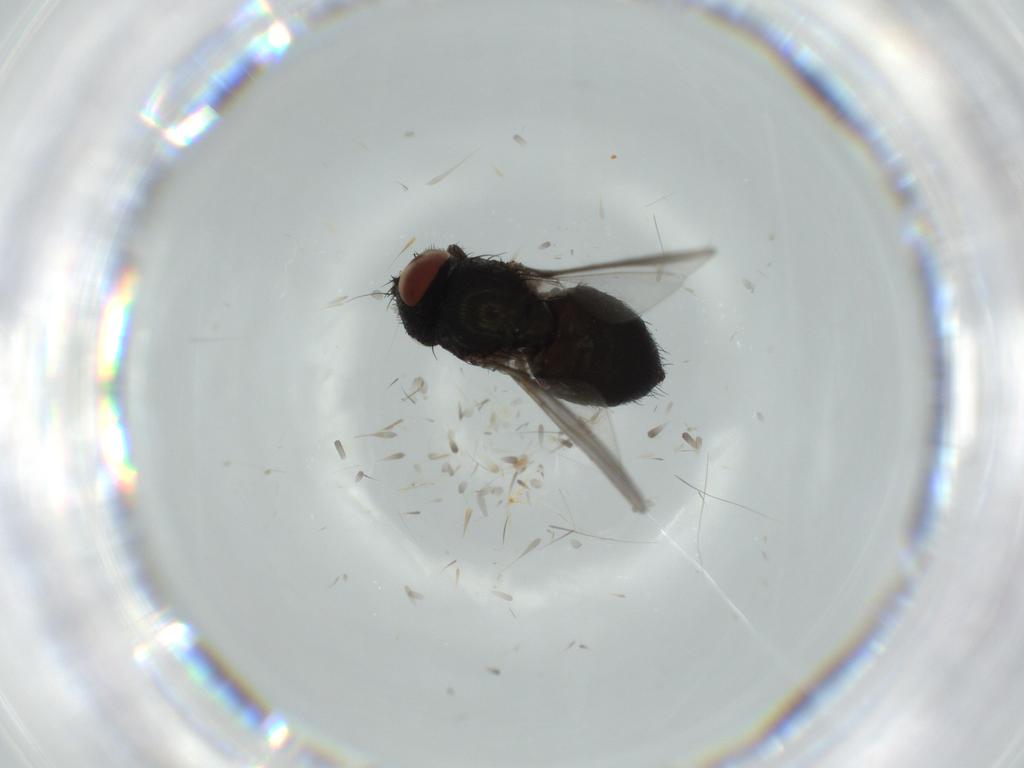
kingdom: Animalia
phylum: Arthropoda
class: Insecta
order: Diptera
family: Milichiidae
